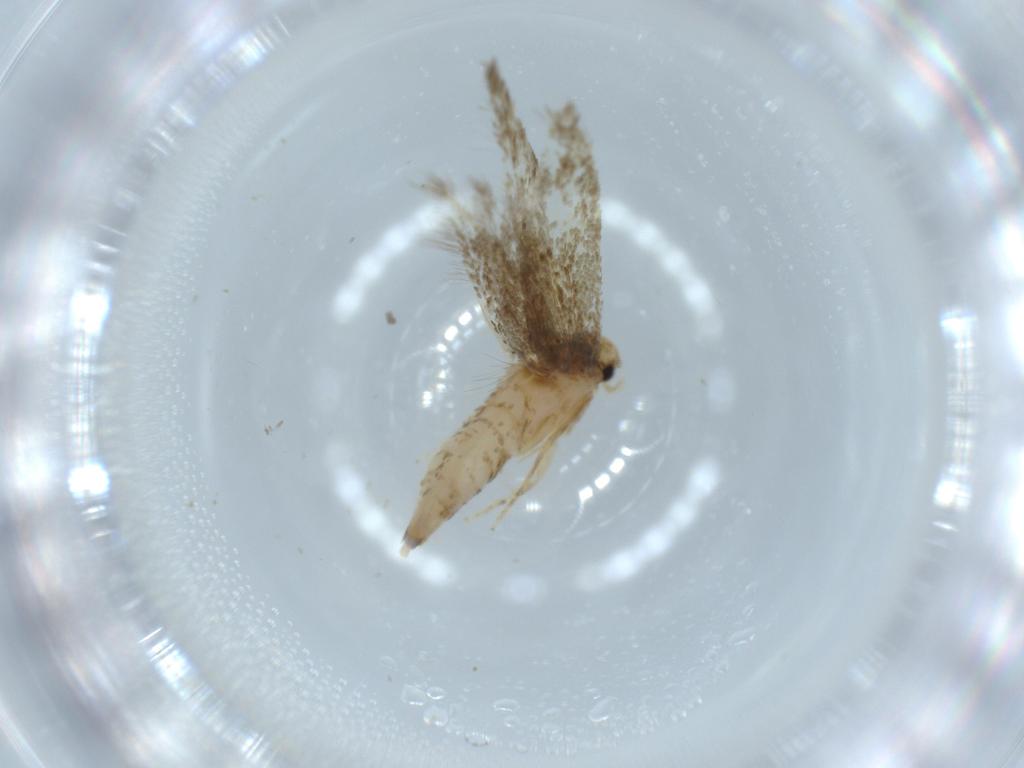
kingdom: Animalia
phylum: Arthropoda
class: Insecta
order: Lepidoptera
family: Tineidae
